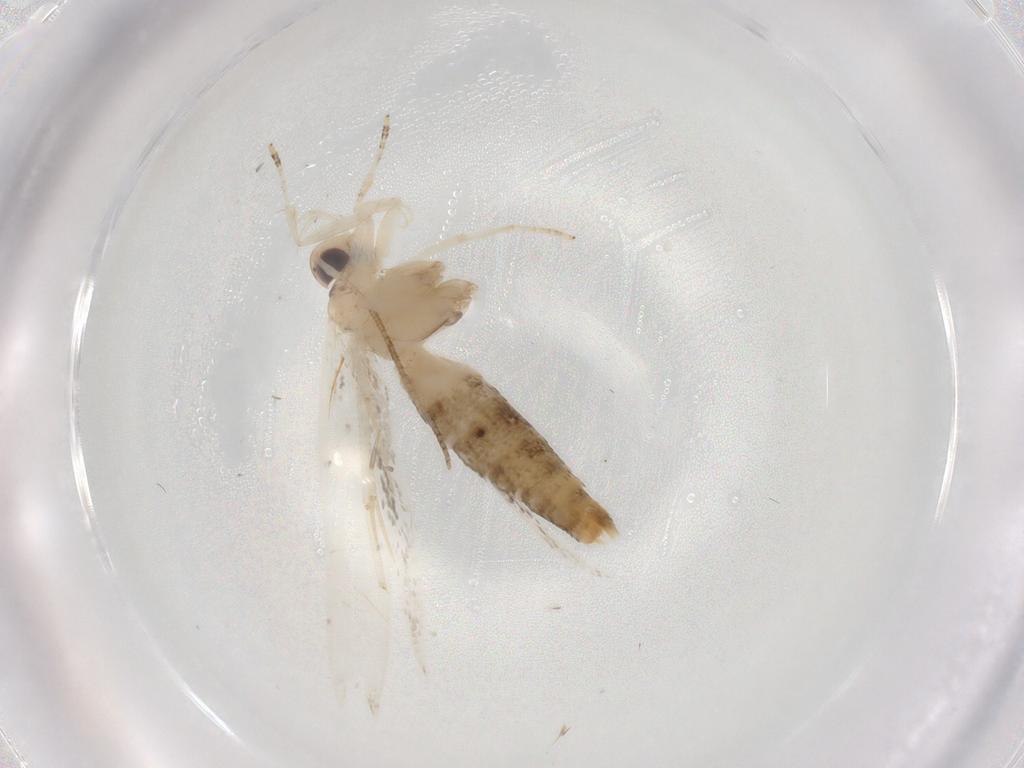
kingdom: Animalia
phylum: Arthropoda
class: Insecta
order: Lepidoptera
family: Cosmopterigidae
